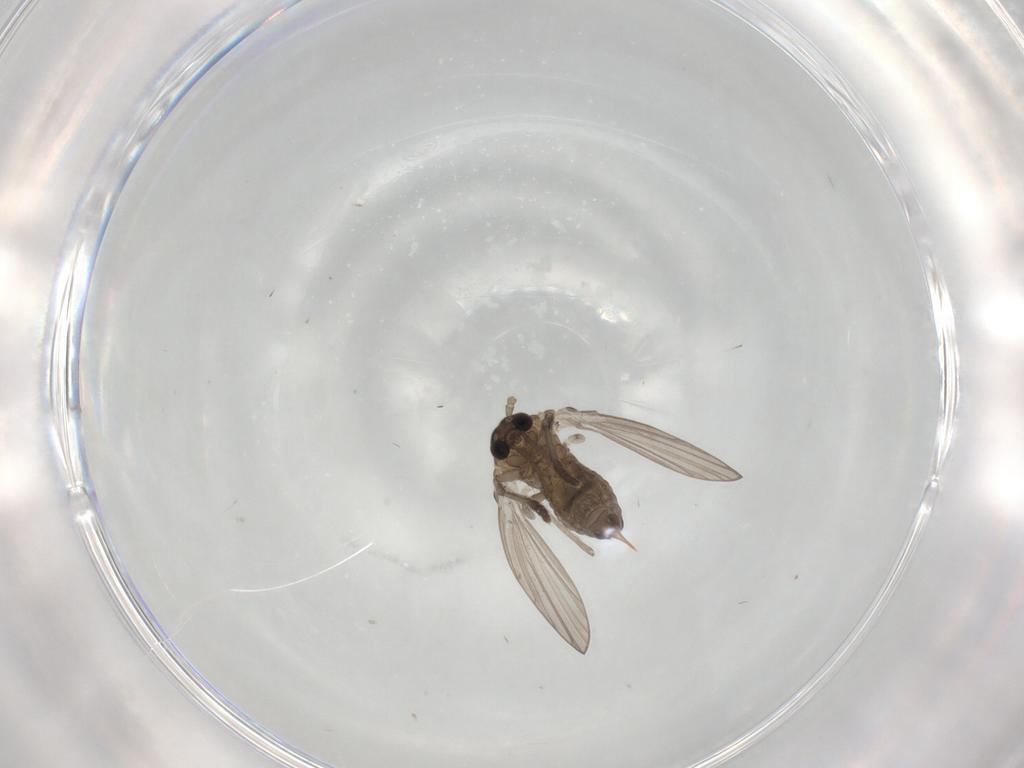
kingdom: Animalia
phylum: Arthropoda
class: Insecta
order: Diptera
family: Psychodidae
